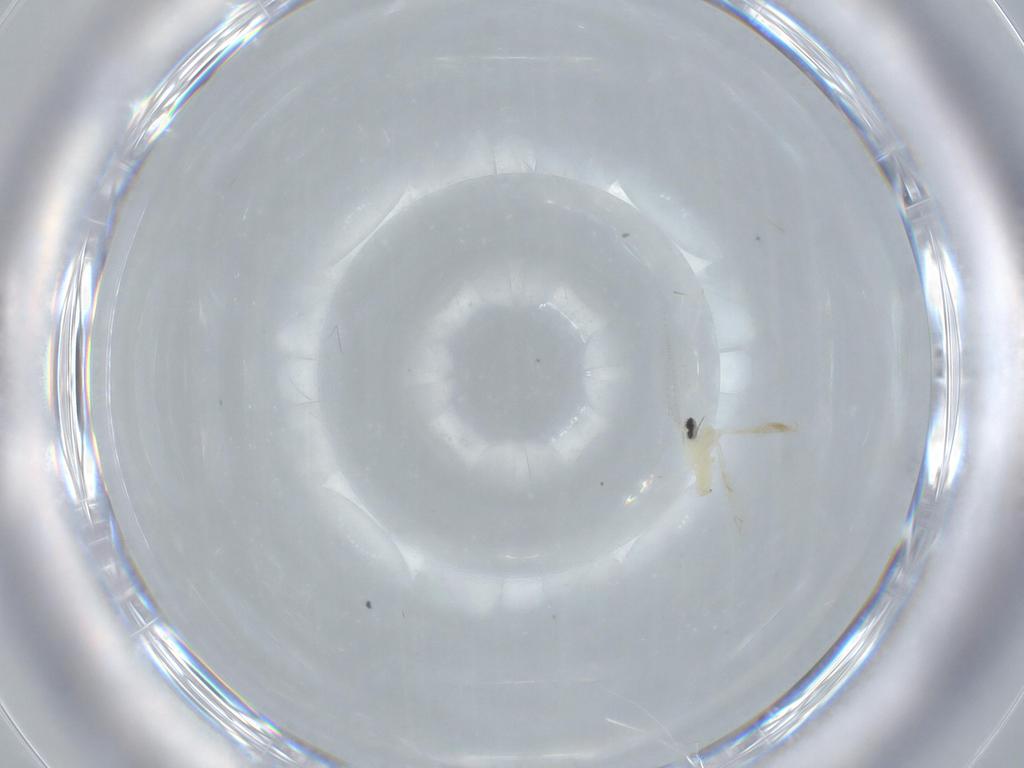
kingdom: Animalia
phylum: Arthropoda
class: Insecta
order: Diptera
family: Cecidomyiidae
